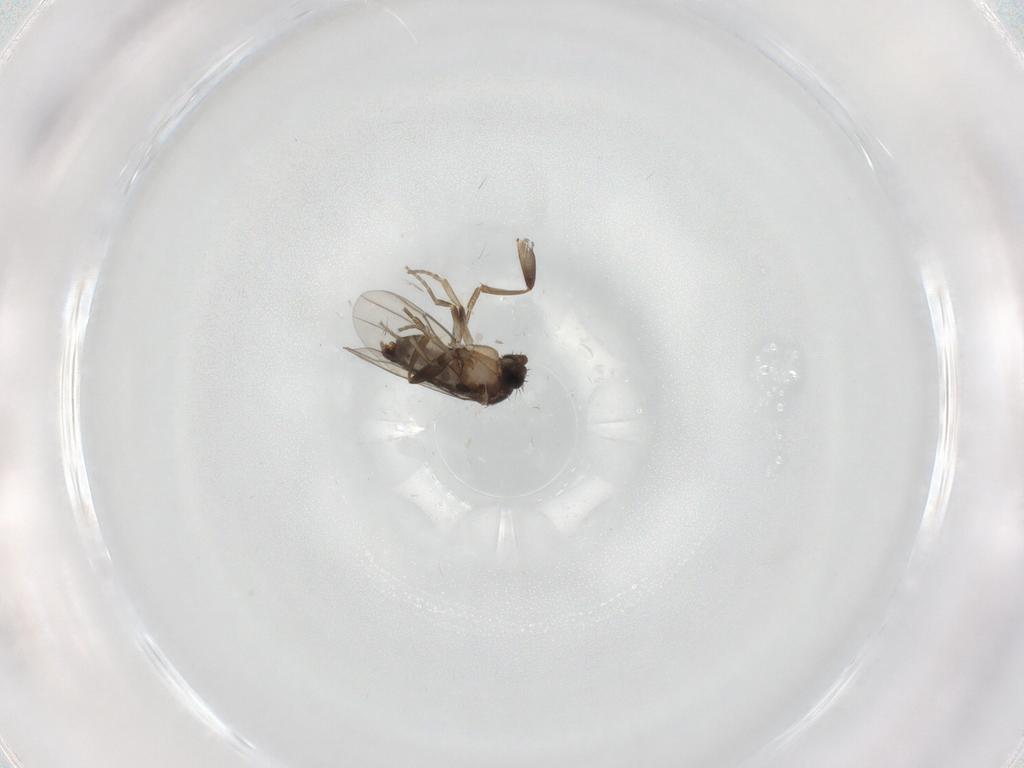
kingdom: Animalia
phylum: Arthropoda
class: Insecta
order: Diptera
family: Phoridae
